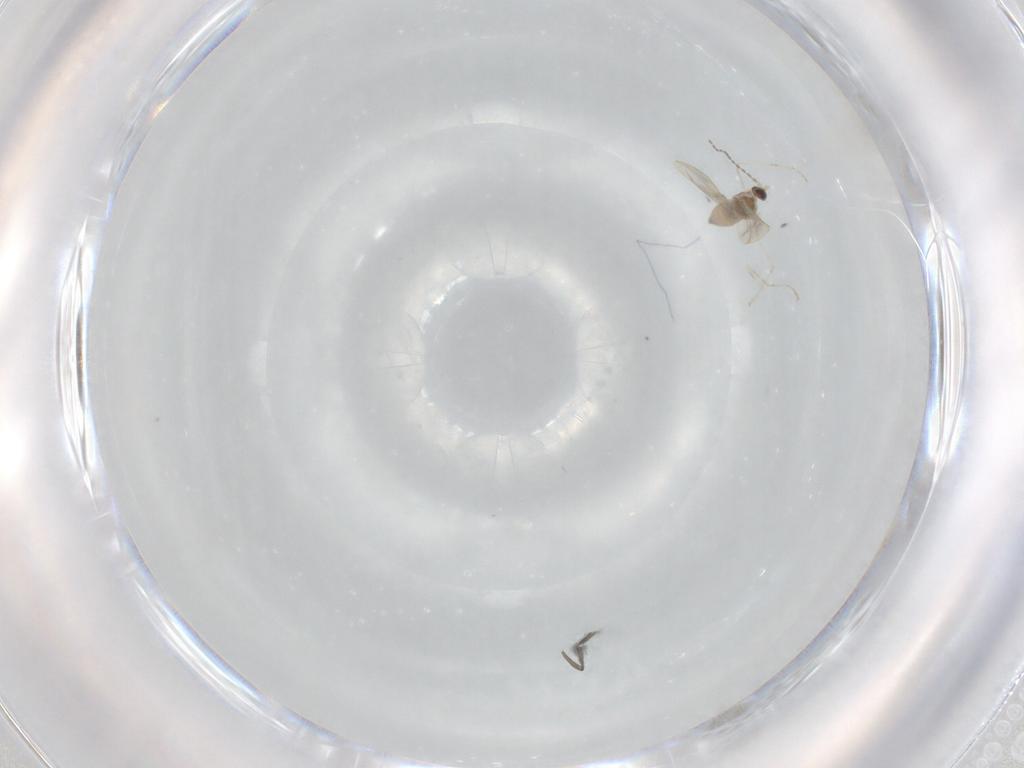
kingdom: Animalia
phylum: Arthropoda
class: Insecta
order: Diptera
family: Cecidomyiidae
